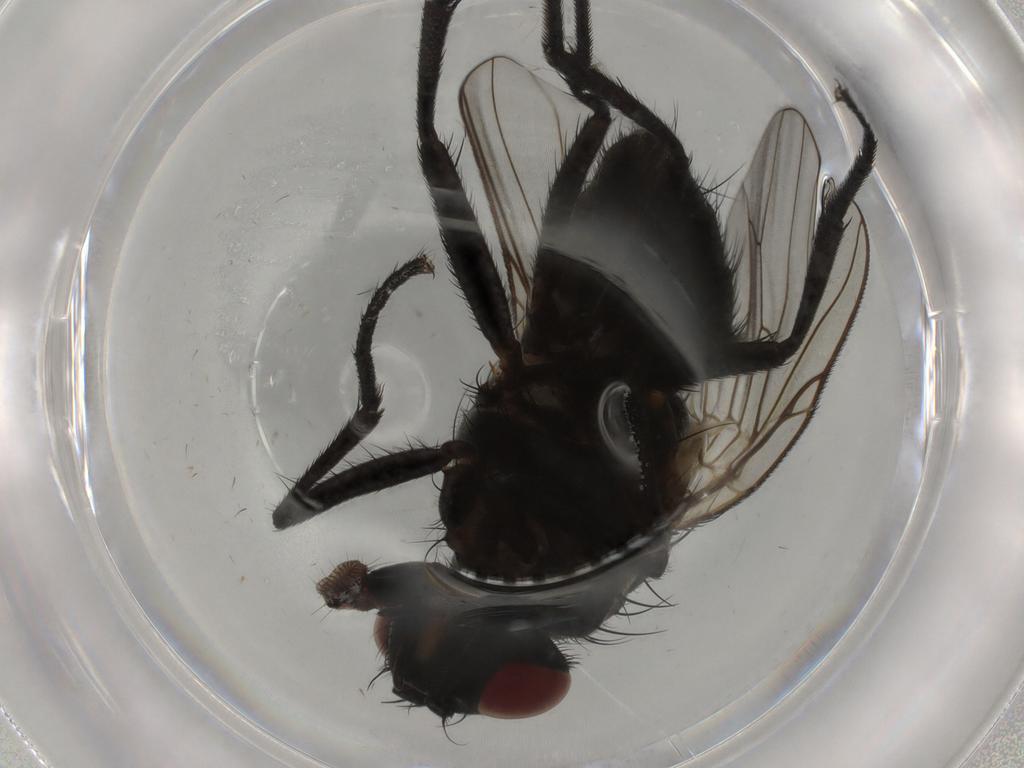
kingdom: Animalia
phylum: Arthropoda
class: Insecta
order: Diptera
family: Muscidae
